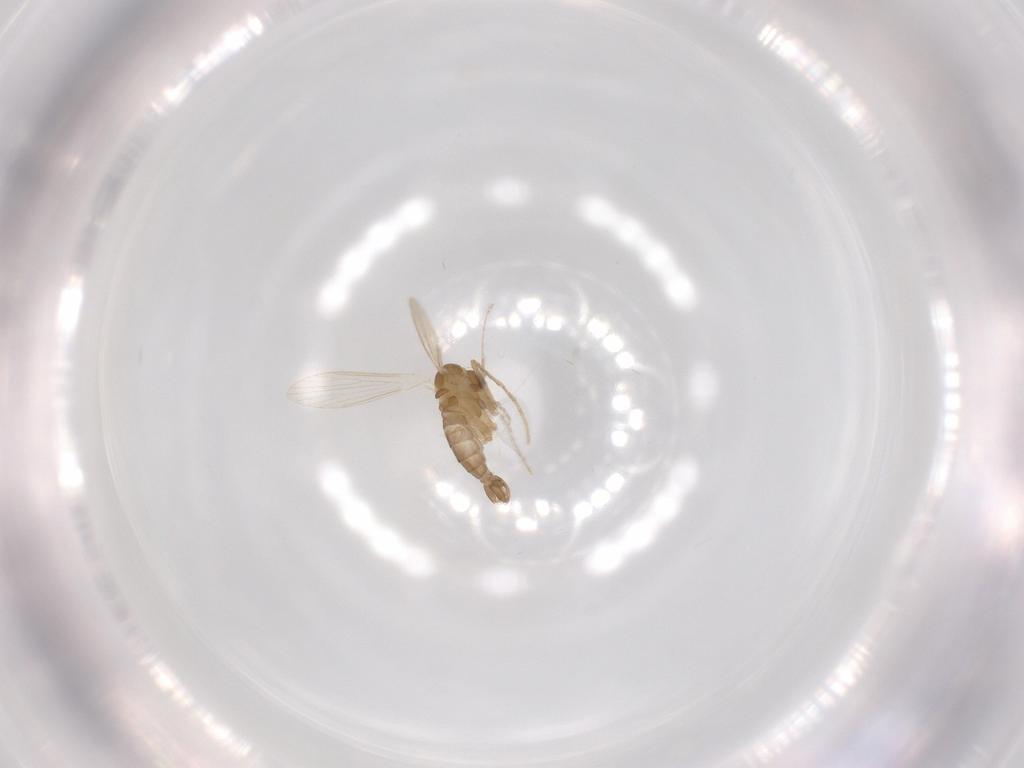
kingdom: Animalia
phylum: Arthropoda
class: Insecta
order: Diptera
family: Psychodidae
